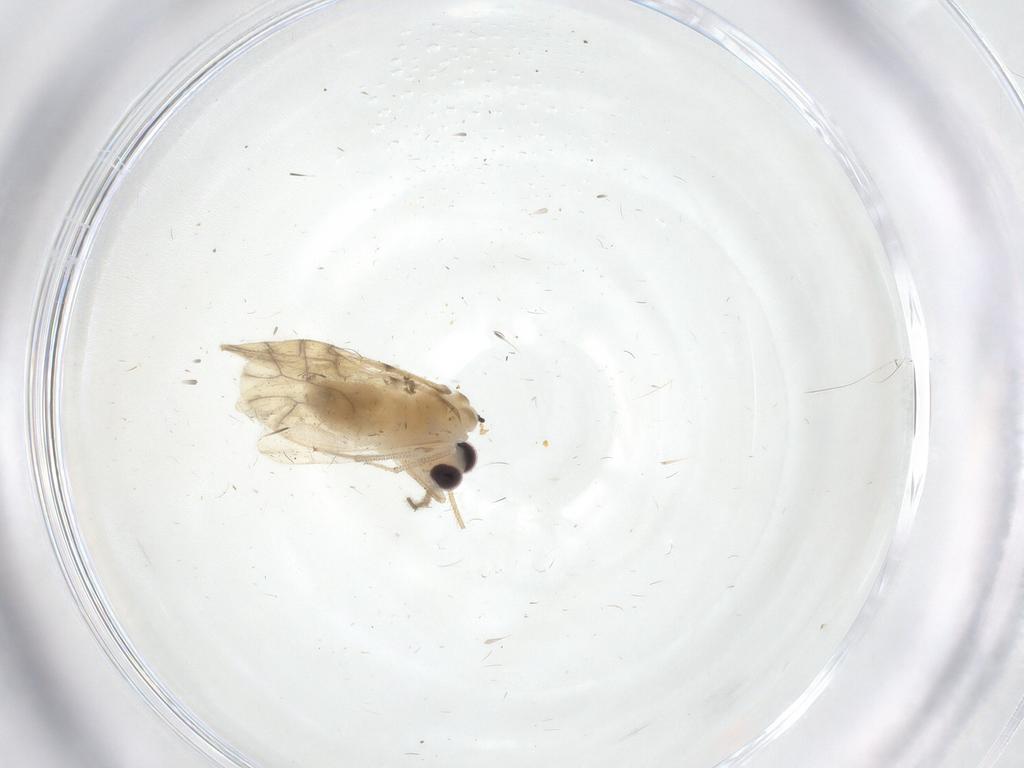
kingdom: Animalia
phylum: Arthropoda
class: Insecta
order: Psocodea
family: Caeciliusidae
